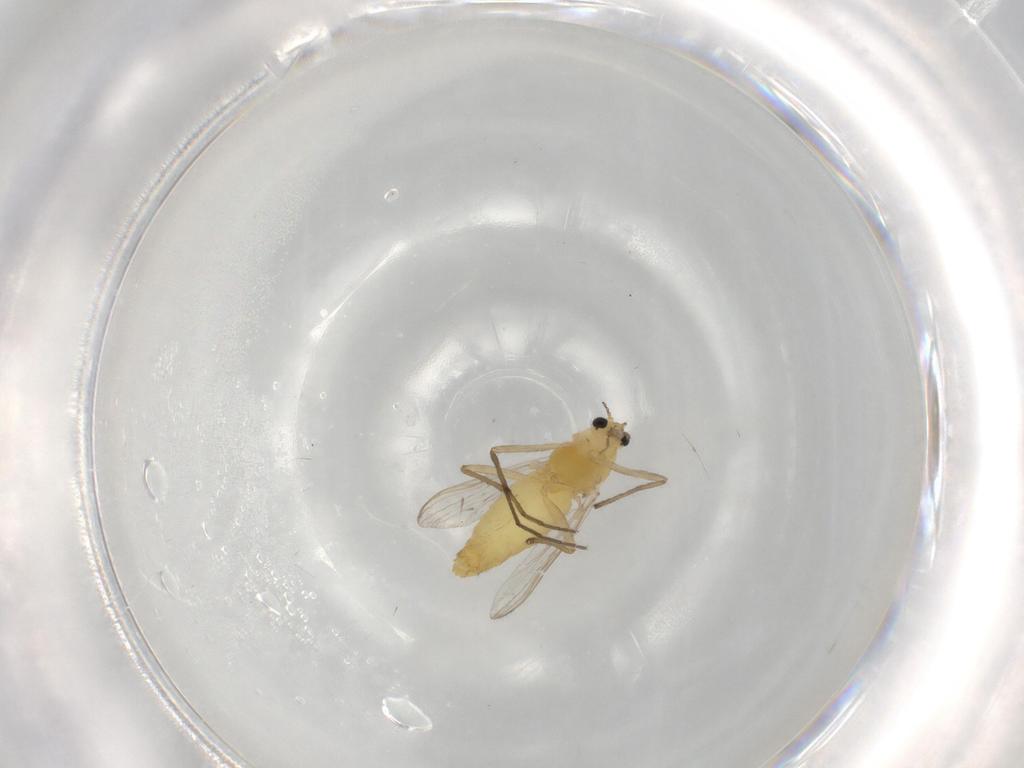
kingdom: Animalia
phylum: Arthropoda
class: Insecta
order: Diptera
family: Chironomidae
